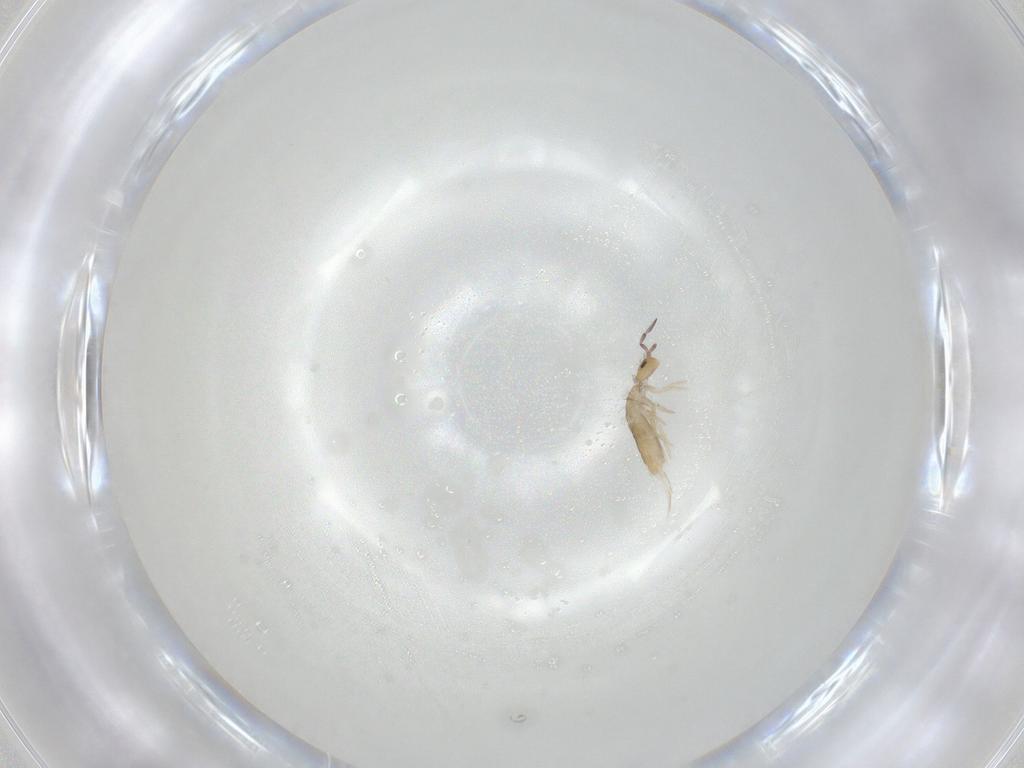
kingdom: Animalia
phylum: Arthropoda
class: Collembola
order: Entomobryomorpha
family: Entomobryidae
